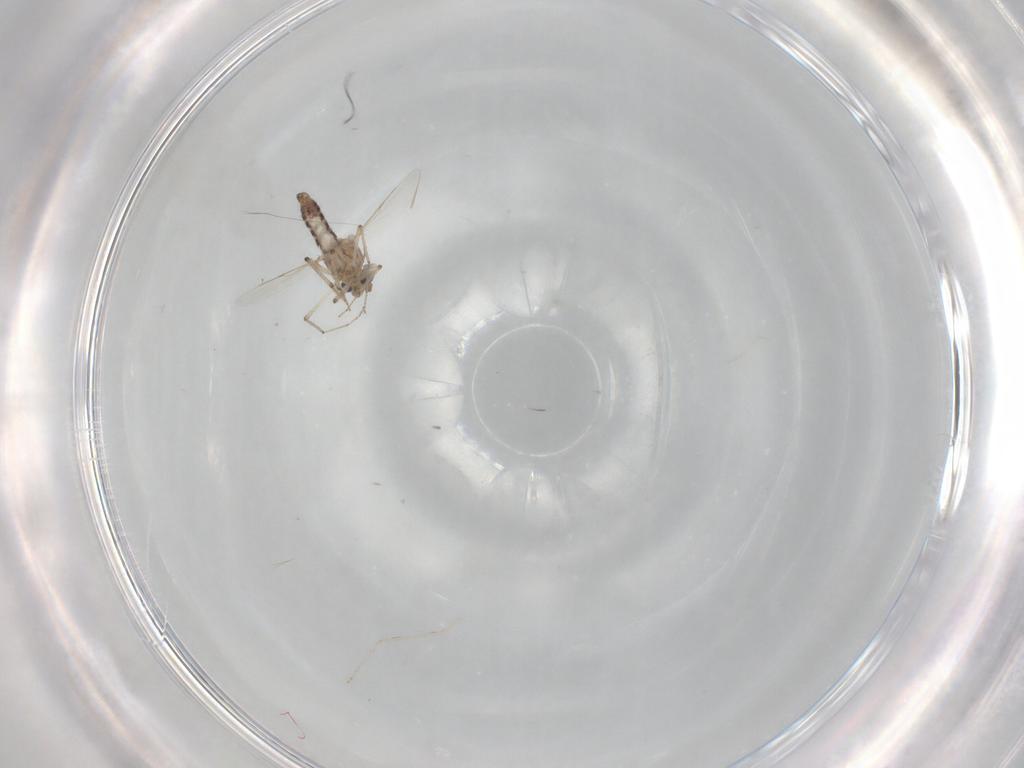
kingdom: Animalia
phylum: Arthropoda
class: Insecta
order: Diptera
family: Ceratopogonidae
